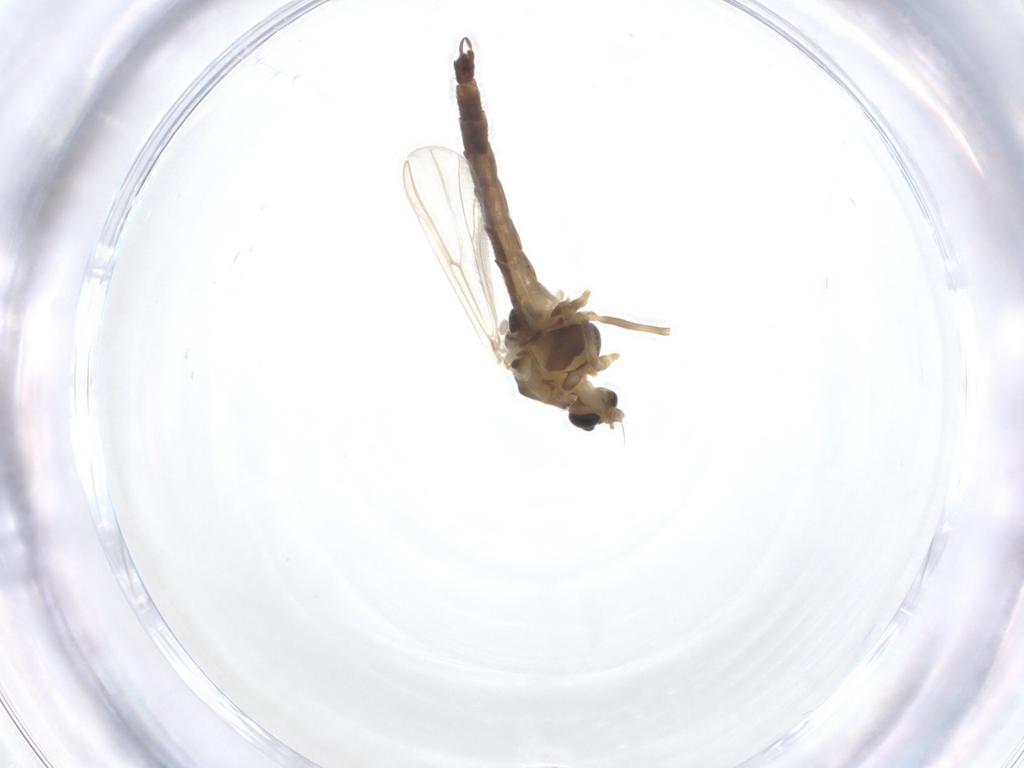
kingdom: Animalia
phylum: Arthropoda
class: Insecta
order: Diptera
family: Chironomidae
